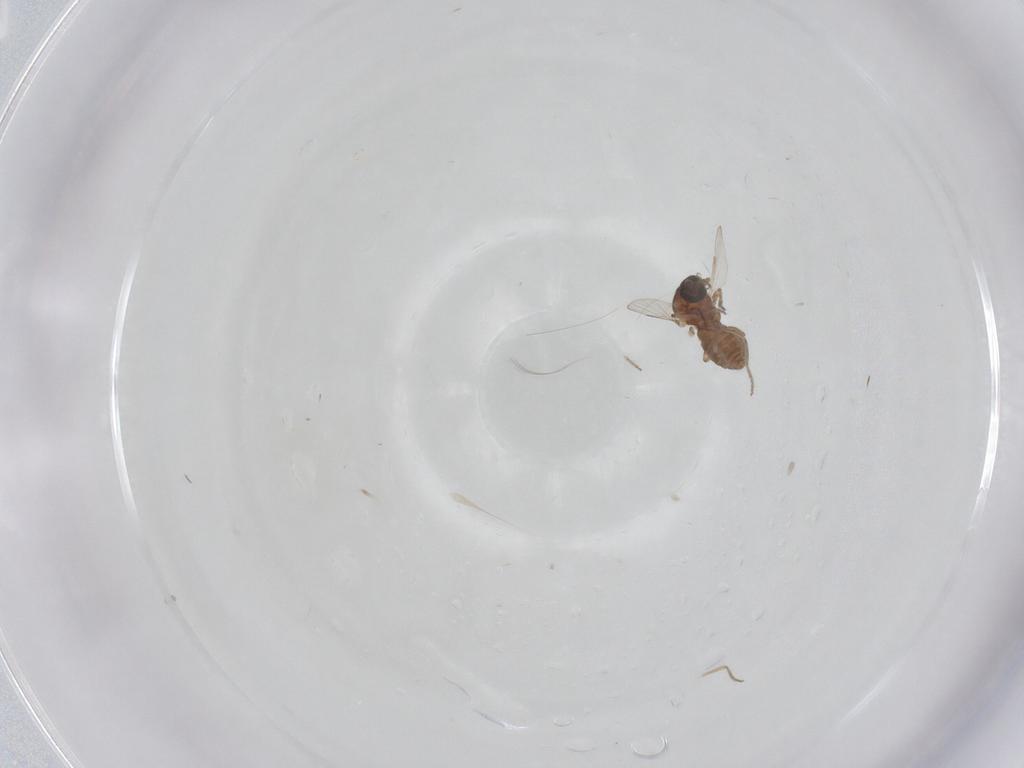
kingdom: Animalia
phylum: Arthropoda
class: Insecta
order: Diptera
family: Ceratopogonidae
